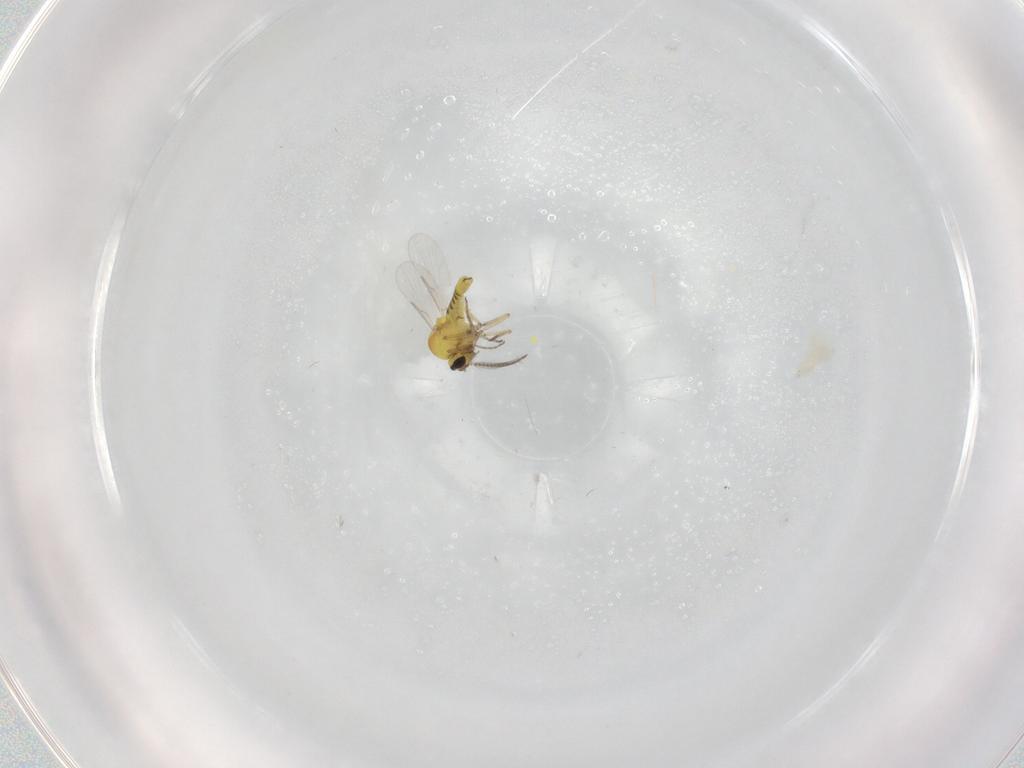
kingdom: Animalia
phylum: Arthropoda
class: Insecta
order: Diptera
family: Ceratopogonidae
